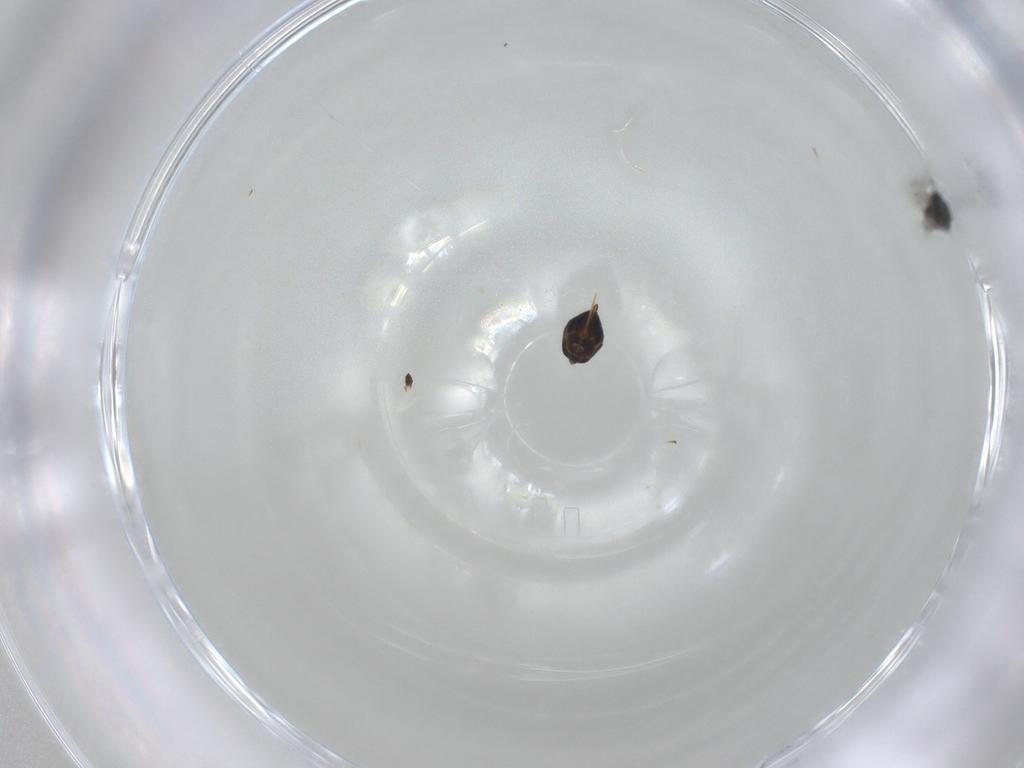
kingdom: Animalia
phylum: Arthropoda
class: Insecta
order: Hymenoptera
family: Eulophidae
